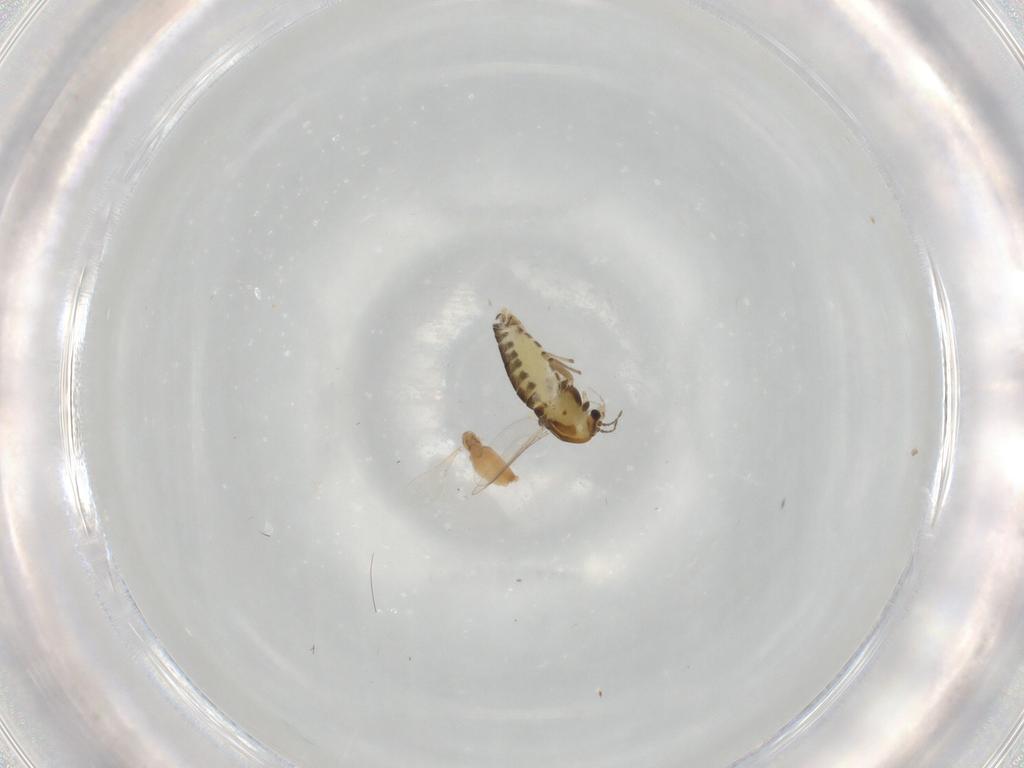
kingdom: Animalia
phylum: Arthropoda
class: Insecta
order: Diptera
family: Chironomidae
